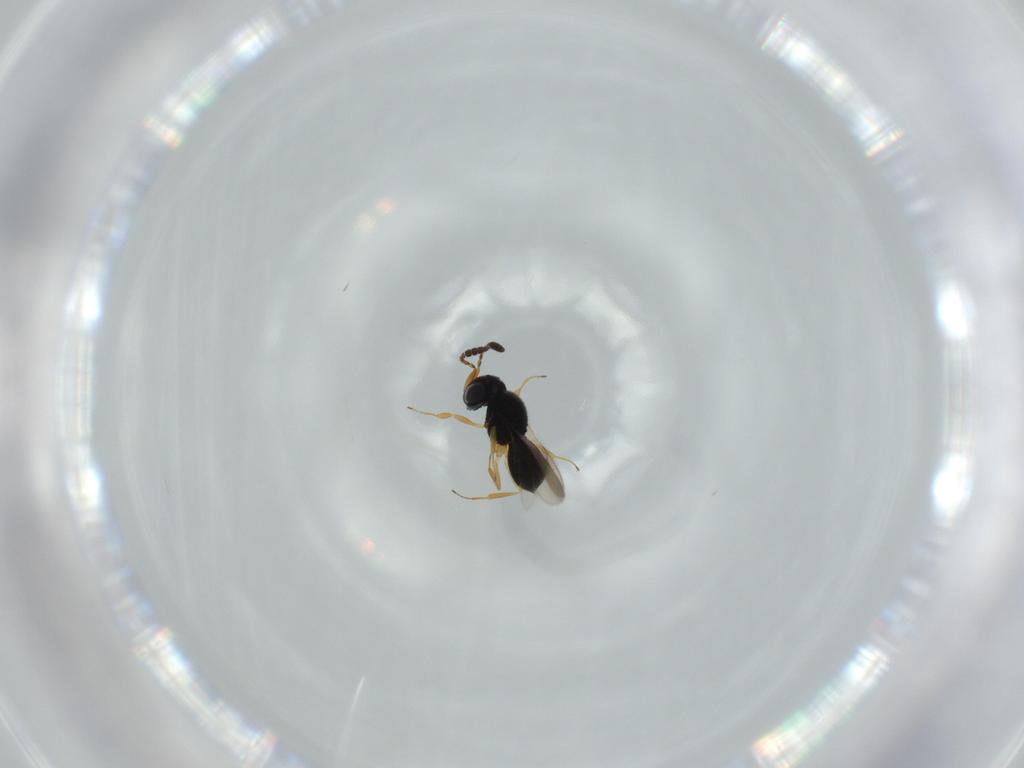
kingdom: Animalia
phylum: Arthropoda
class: Insecta
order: Hymenoptera
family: Scelionidae
